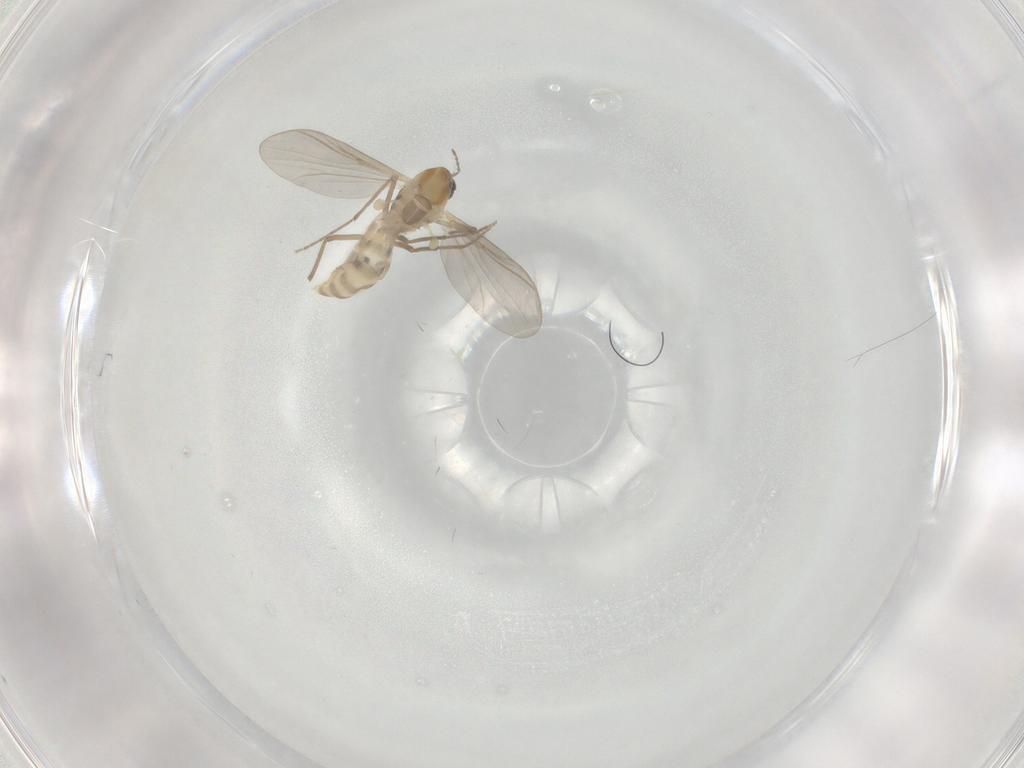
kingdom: Animalia
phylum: Arthropoda
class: Insecta
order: Diptera
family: Chironomidae
